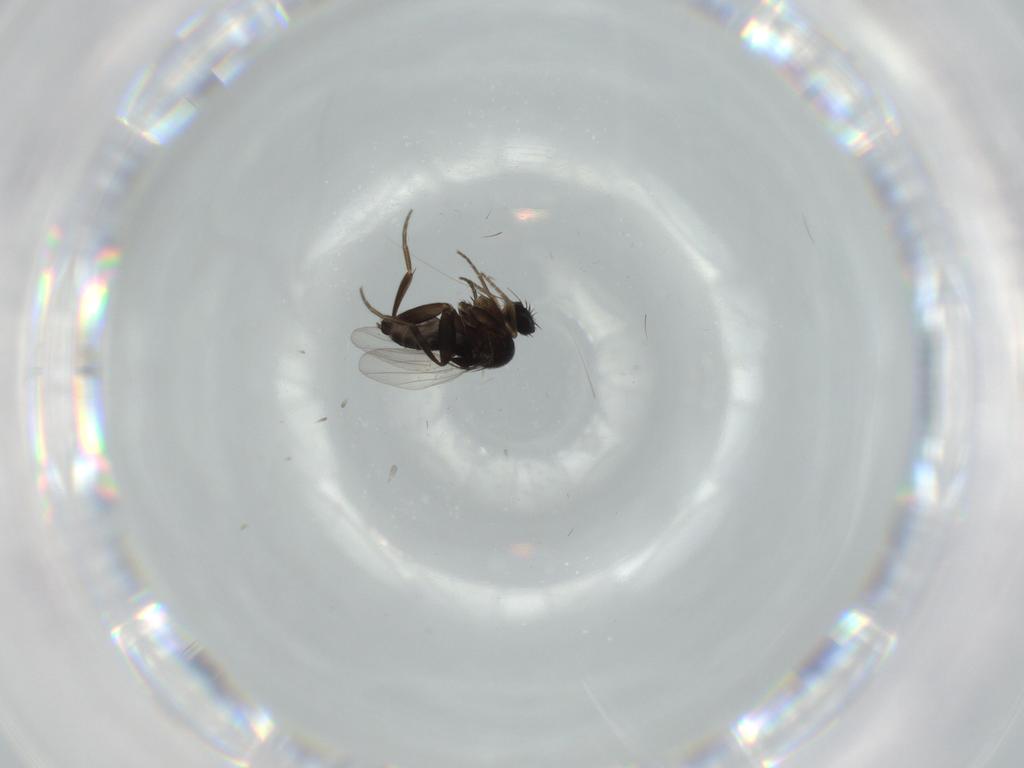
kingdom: Animalia
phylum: Arthropoda
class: Insecta
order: Diptera
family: Phoridae
